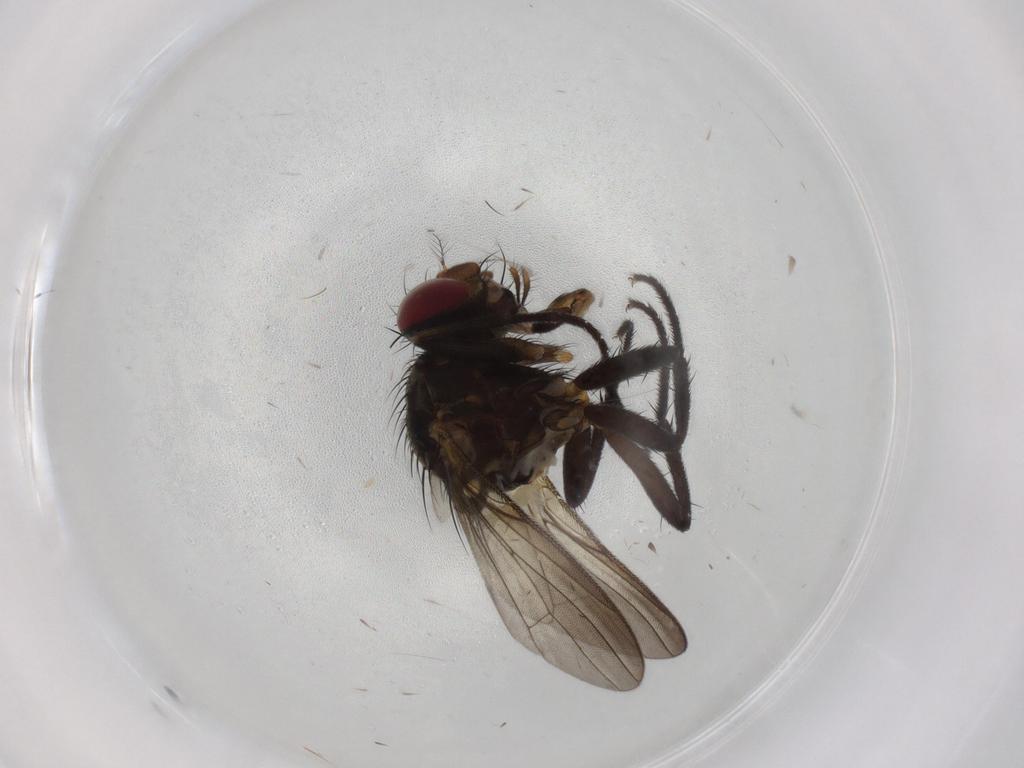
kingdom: Animalia
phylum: Arthropoda
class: Insecta
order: Diptera
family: Anthomyiidae
